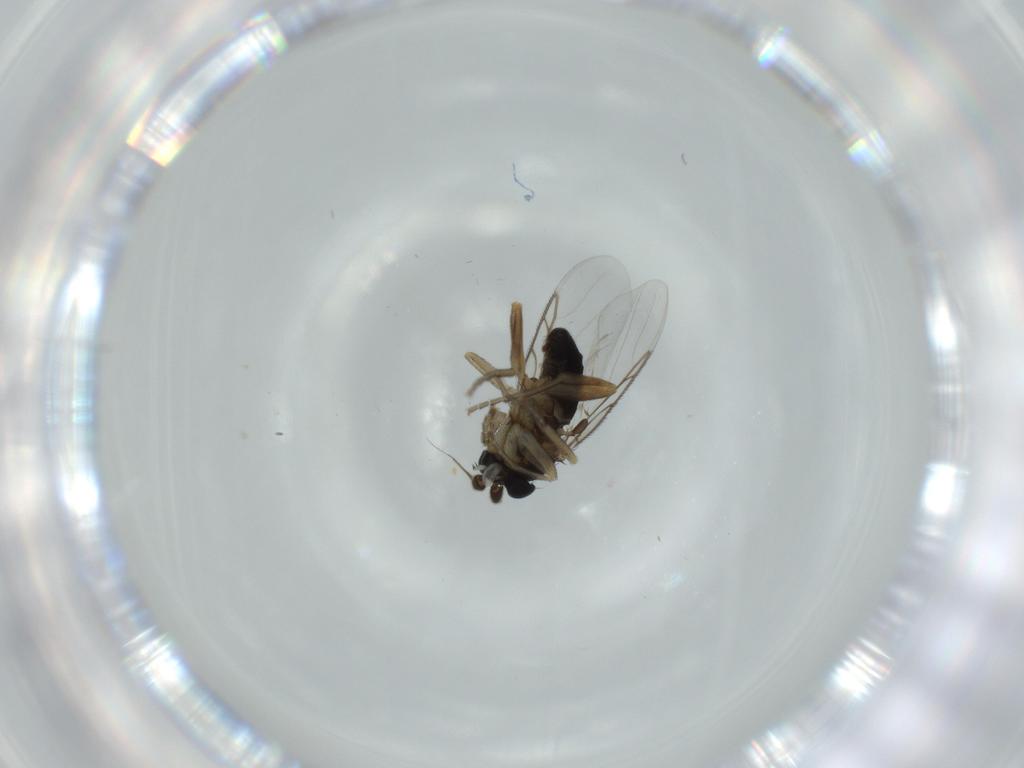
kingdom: Animalia
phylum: Arthropoda
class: Insecta
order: Diptera
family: Phoridae
